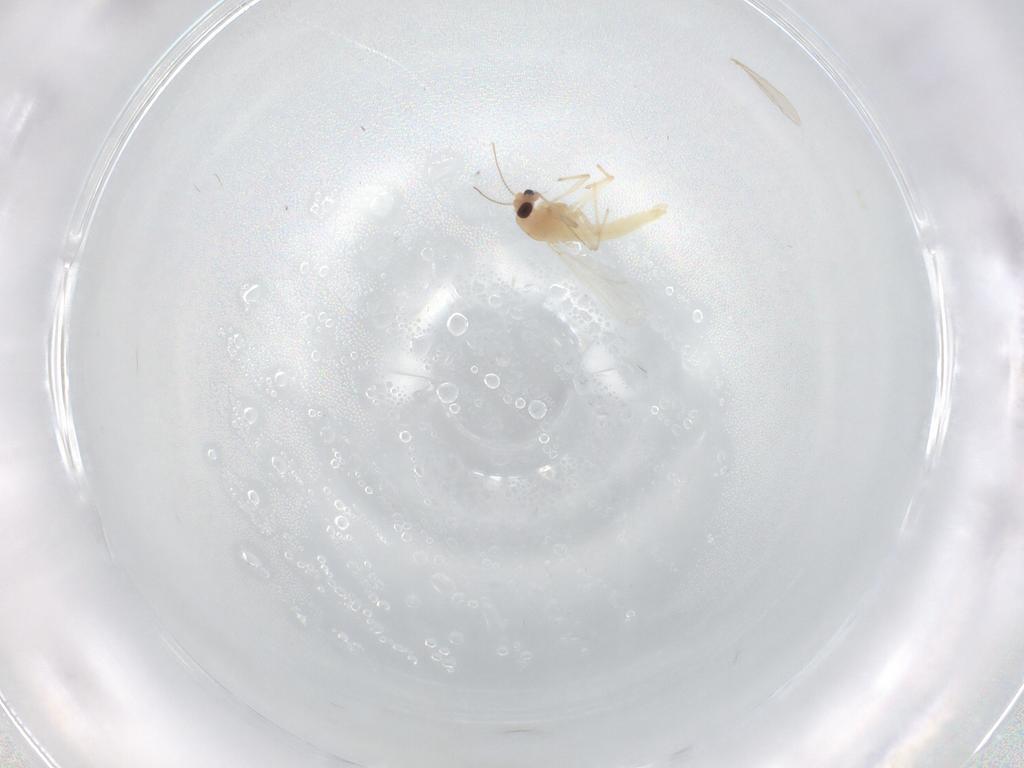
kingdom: Animalia
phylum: Arthropoda
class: Insecta
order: Diptera
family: Chironomidae
